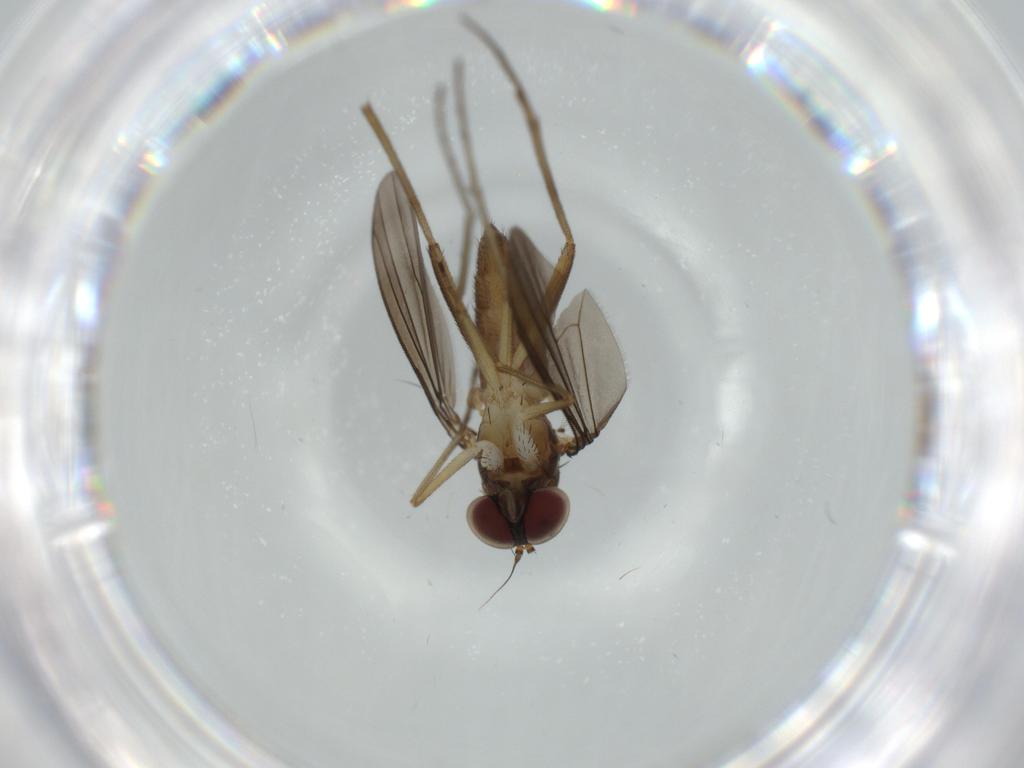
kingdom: Animalia
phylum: Arthropoda
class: Insecta
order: Diptera
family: Dolichopodidae
